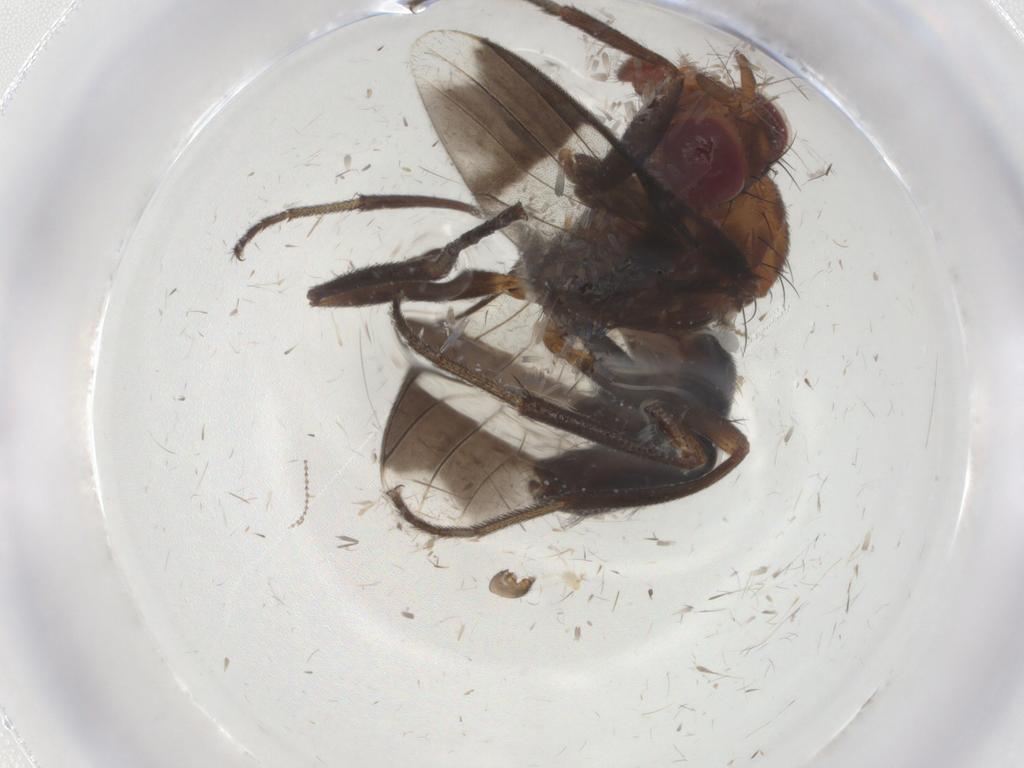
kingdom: Animalia
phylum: Arthropoda
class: Insecta
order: Diptera
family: Richardiidae
